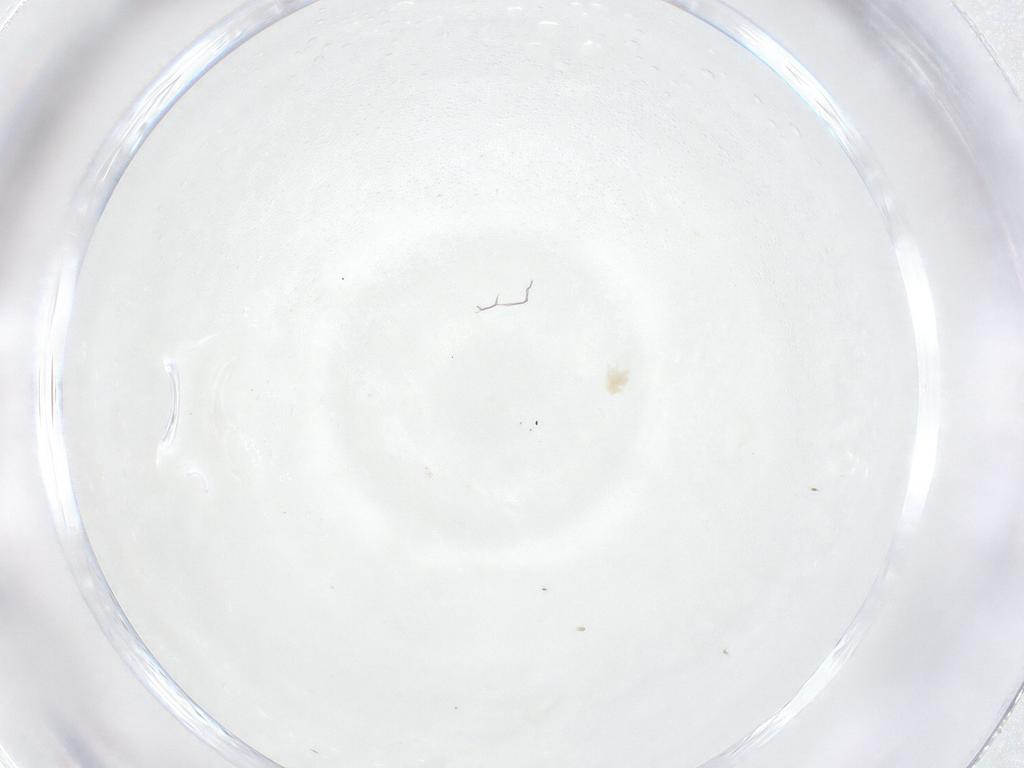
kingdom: Animalia
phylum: Arthropoda
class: Arachnida
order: Trombidiformes
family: Eupodidae
